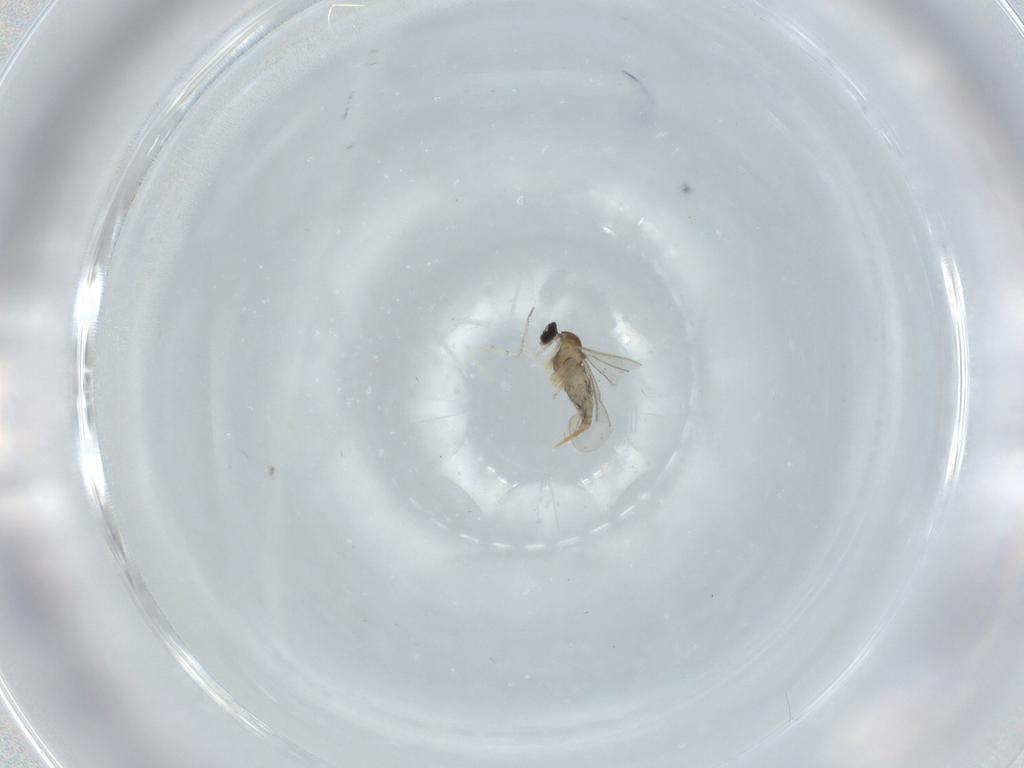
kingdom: Animalia
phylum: Arthropoda
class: Insecta
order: Diptera
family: Cecidomyiidae
